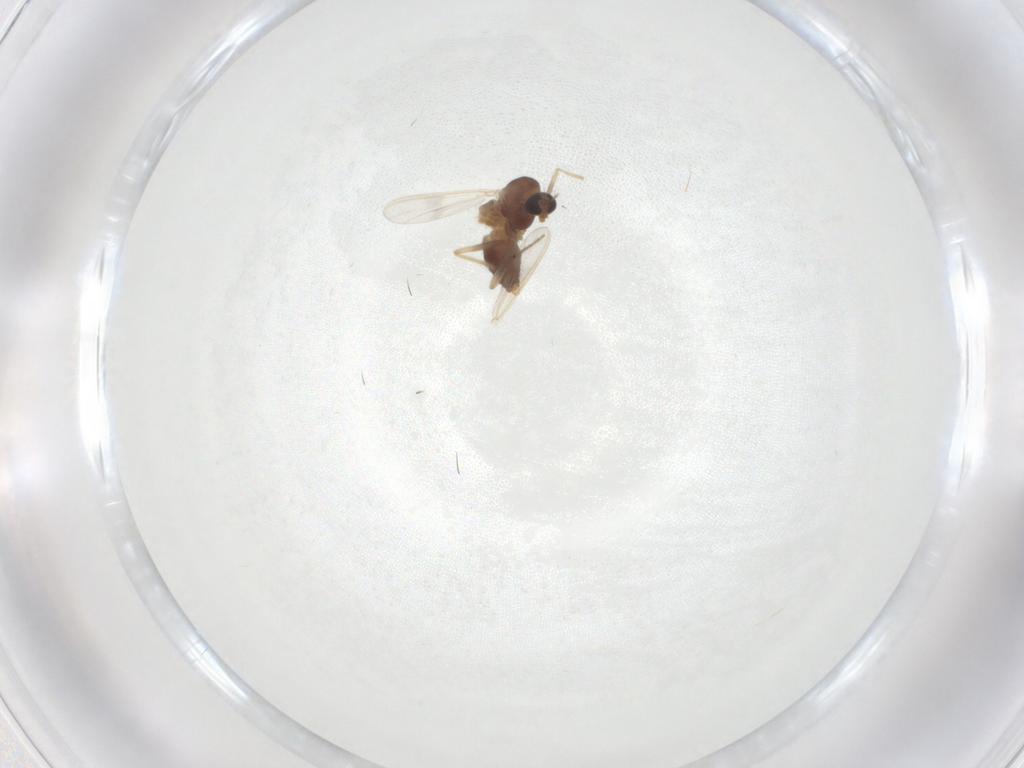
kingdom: Animalia
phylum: Arthropoda
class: Insecta
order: Diptera
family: Chironomidae
